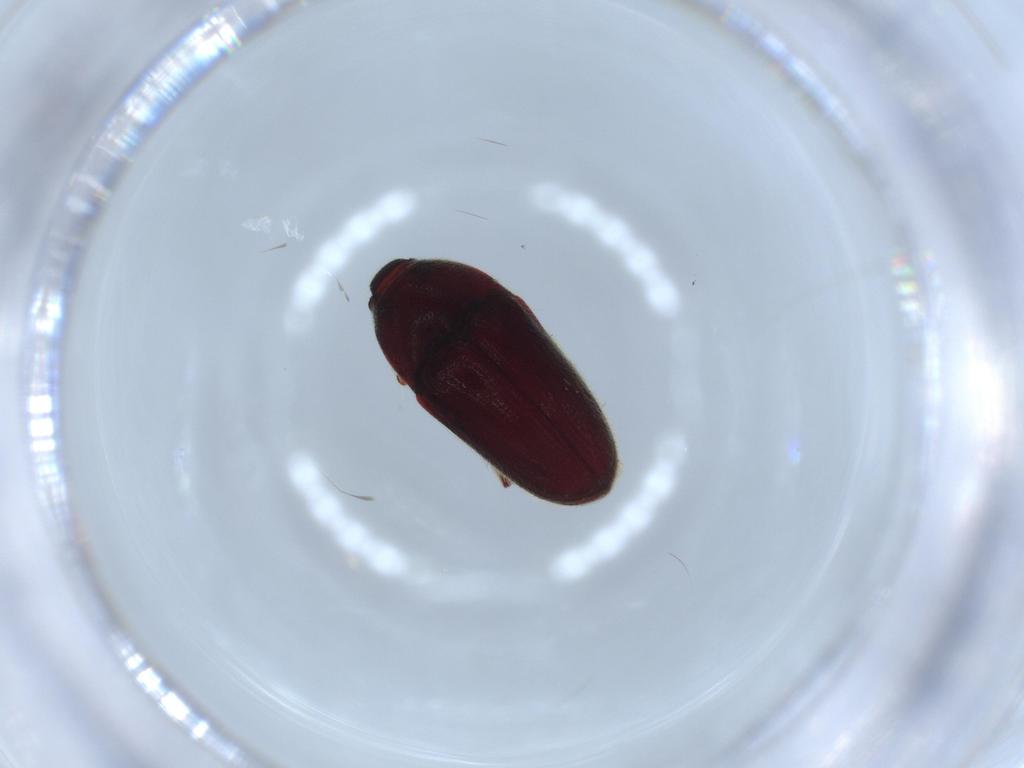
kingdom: Animalia
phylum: Arthropoda
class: Insecta
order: Coleoptera
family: Throscidae
